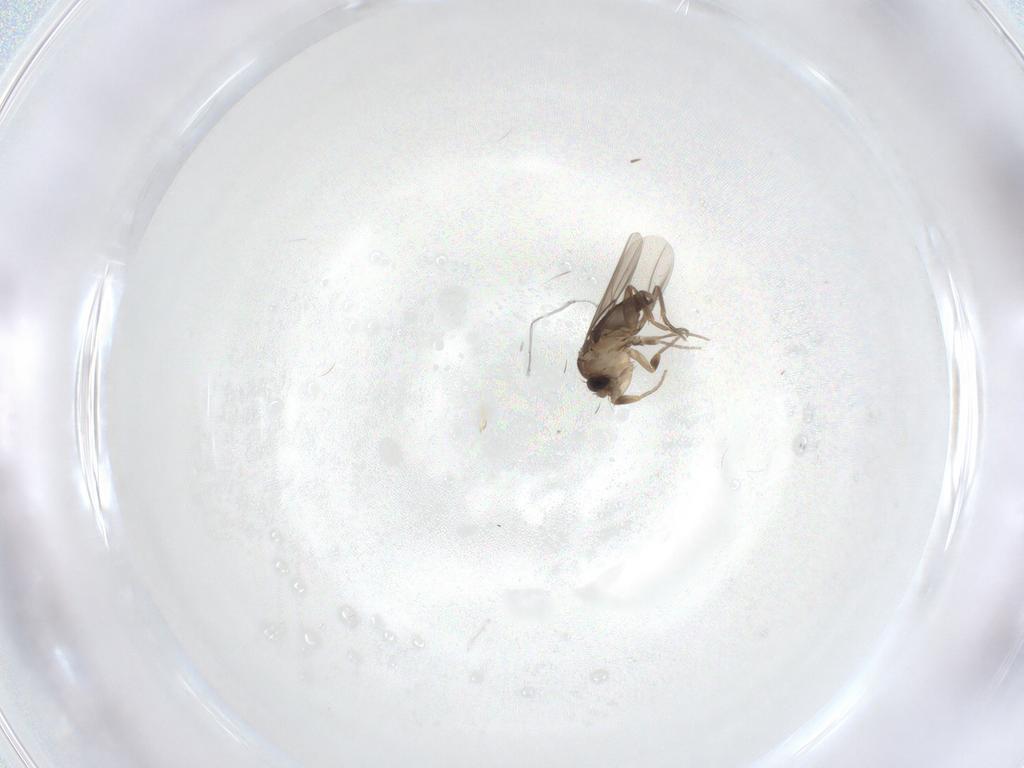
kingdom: Animalia
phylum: Arthropoda
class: Insecta
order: Diptera
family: Phoridae
